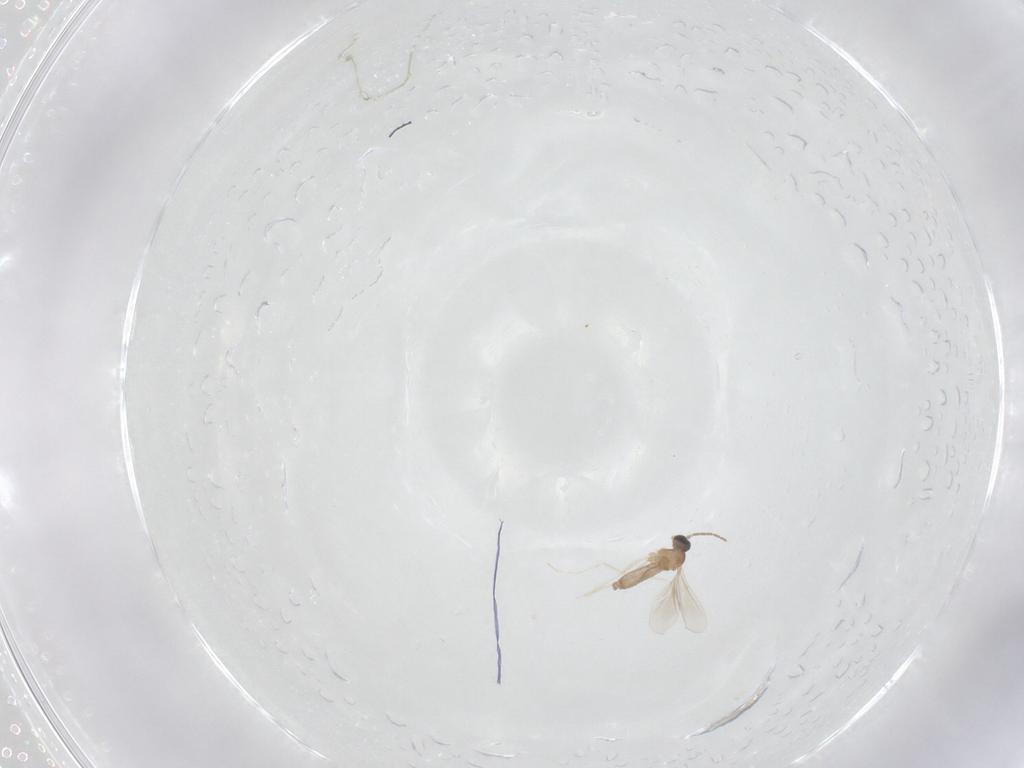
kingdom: Animalia
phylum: Arthropoda
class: Insecta
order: Diptera
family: Cecidomyiidae
